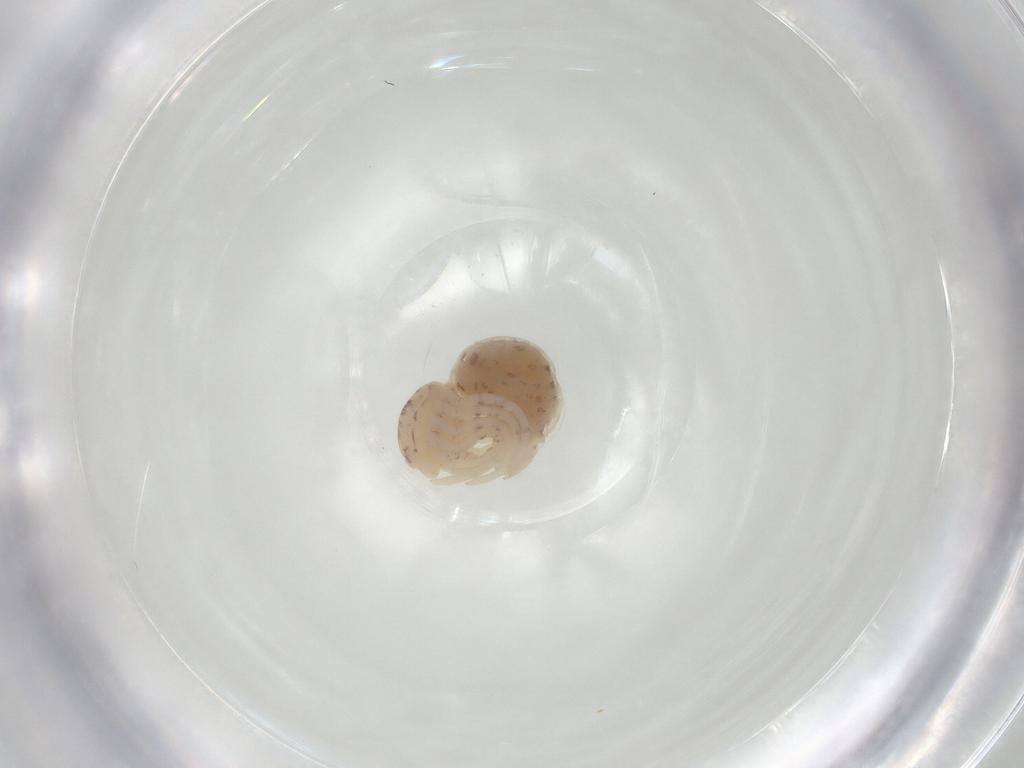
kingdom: Animalia
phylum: Arthropoda
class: Arachnida
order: Araneae
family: Scytodidae
